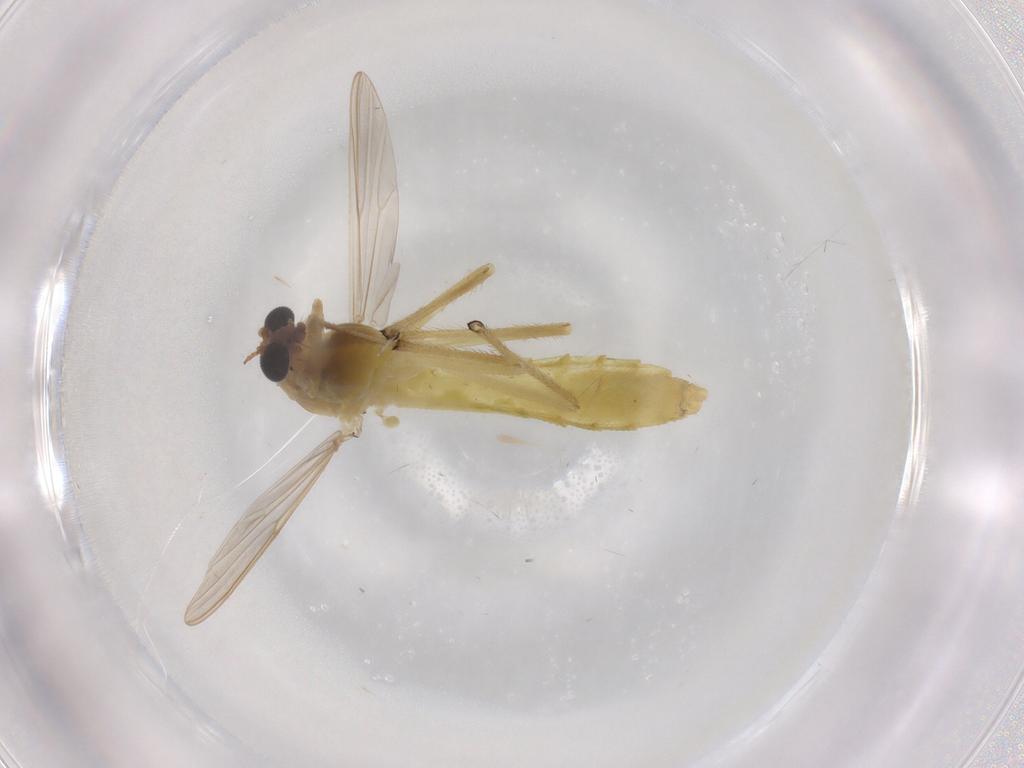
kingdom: Animalia
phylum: Arthropoda
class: Insecta
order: Diptera
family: Chironomidae
